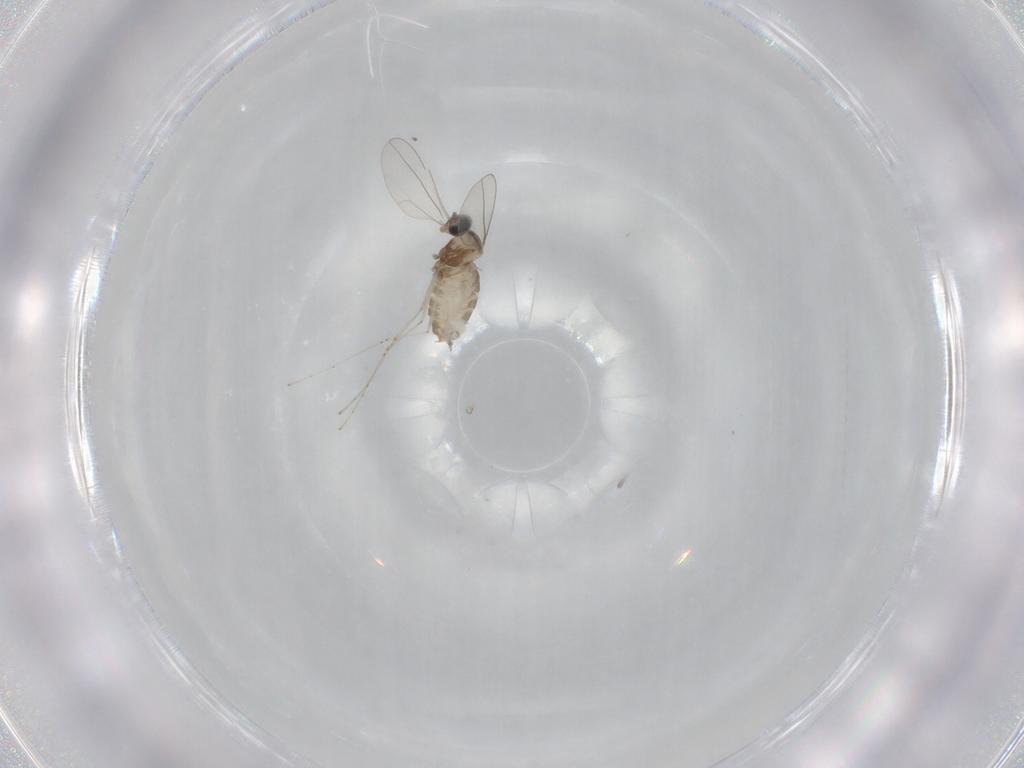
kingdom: Animalia
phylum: Arthropoda
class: Insecta
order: Diptera
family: Cecidomyiidae
